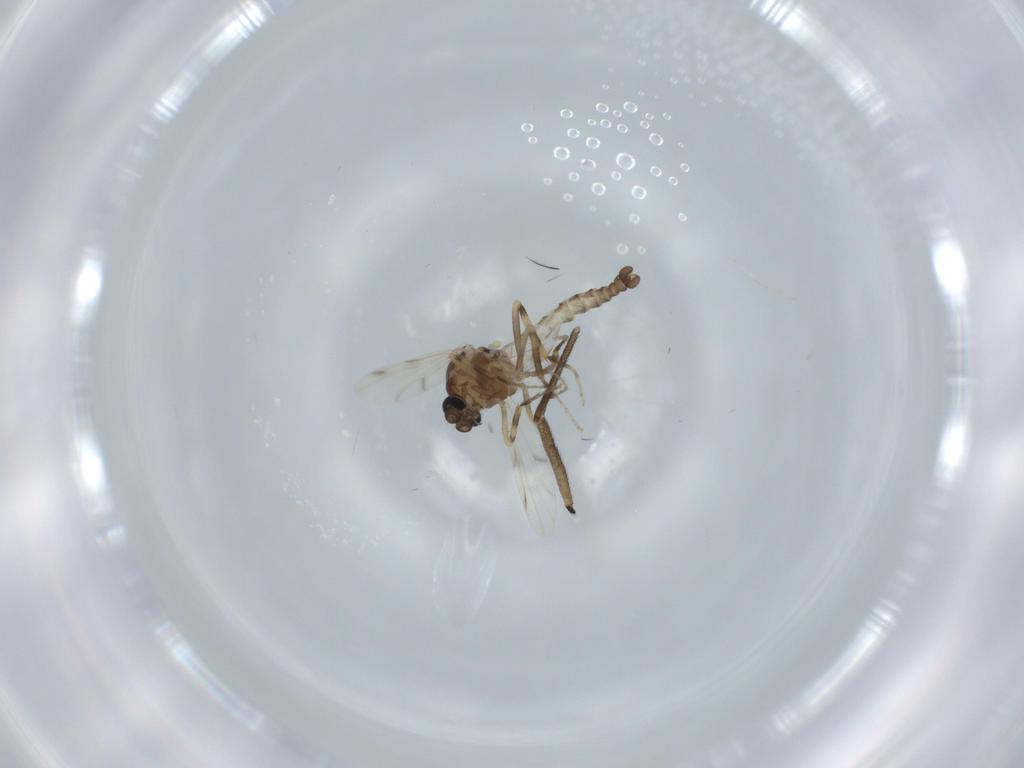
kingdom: Animalia
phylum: Arthropoda
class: Insecta
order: Diptera
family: Ceratopogonidae
